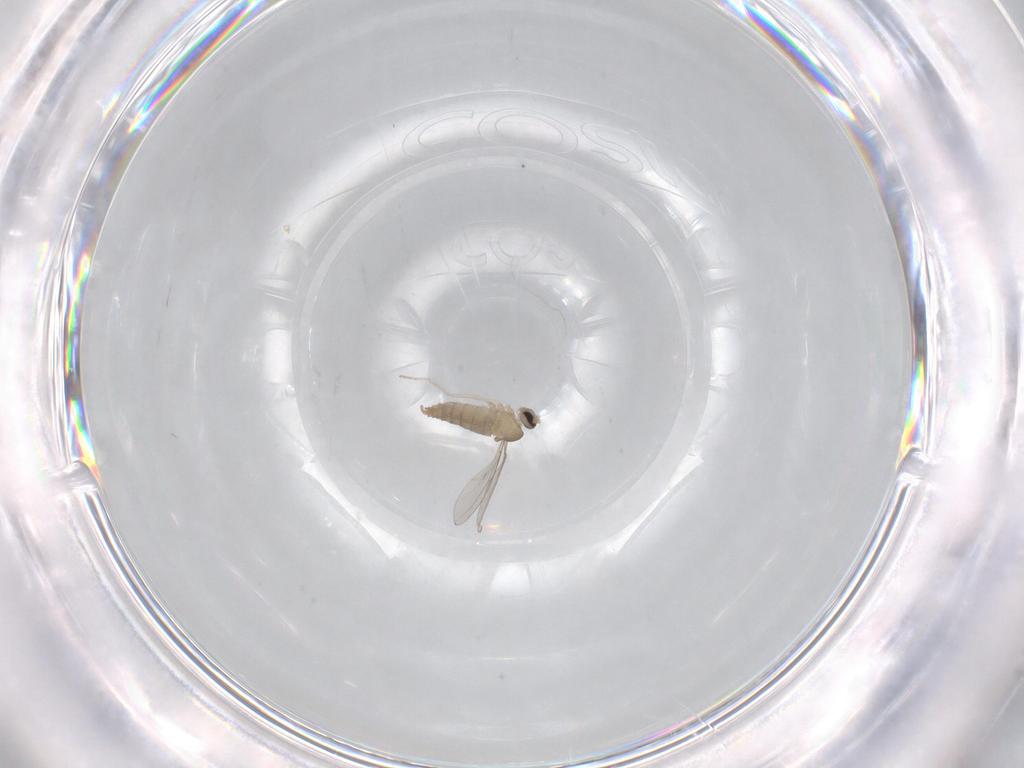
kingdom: Animalia
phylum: Arthropoda
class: Insecta
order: Diptera
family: Cecidomyiidae
